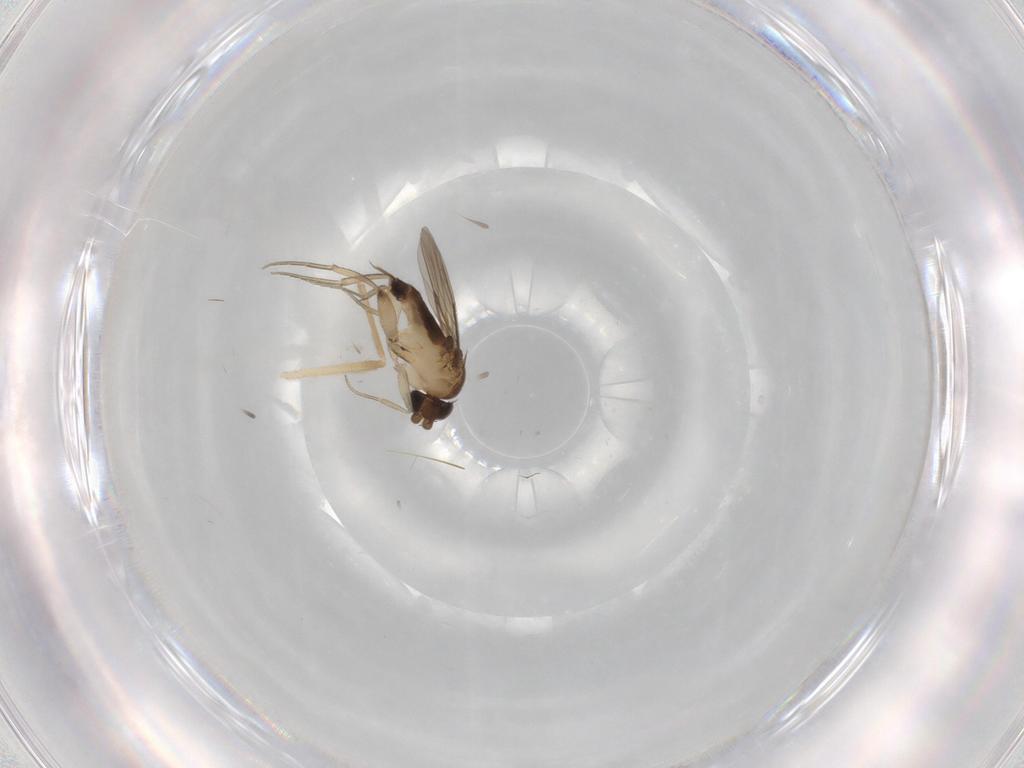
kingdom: Animalia
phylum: Arthropoda
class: Insecta
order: Diptera
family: Phoridae
